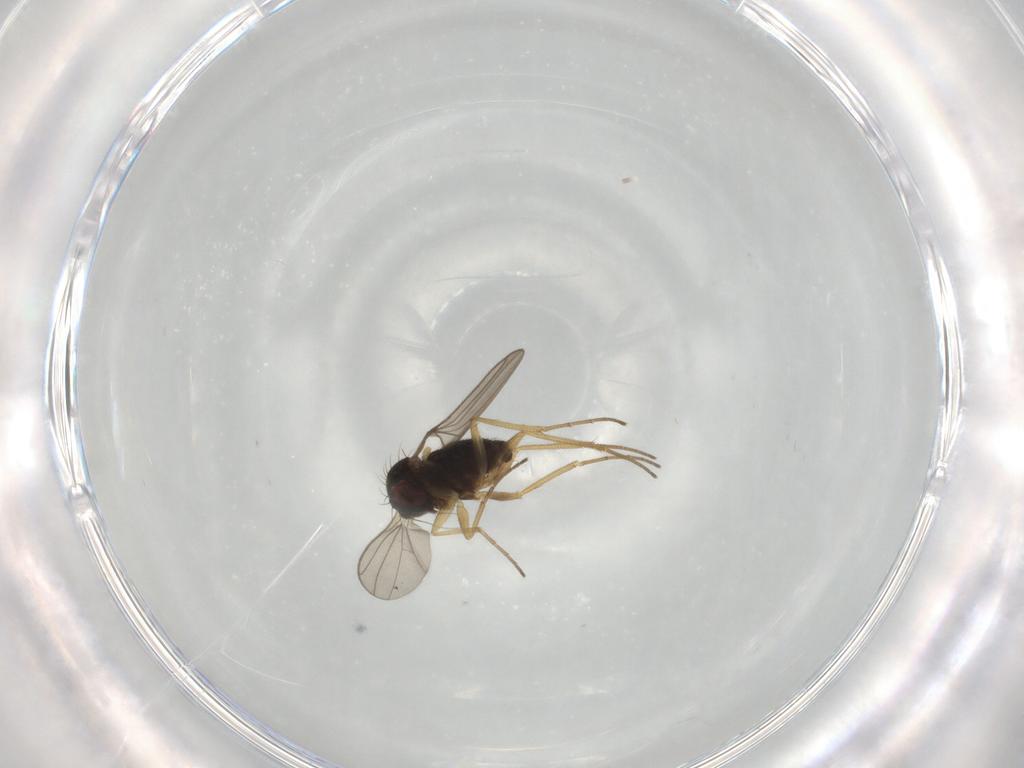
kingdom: Animalia
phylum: Arthropoda
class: Insecta
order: Diptera
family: Dolichopodidae
